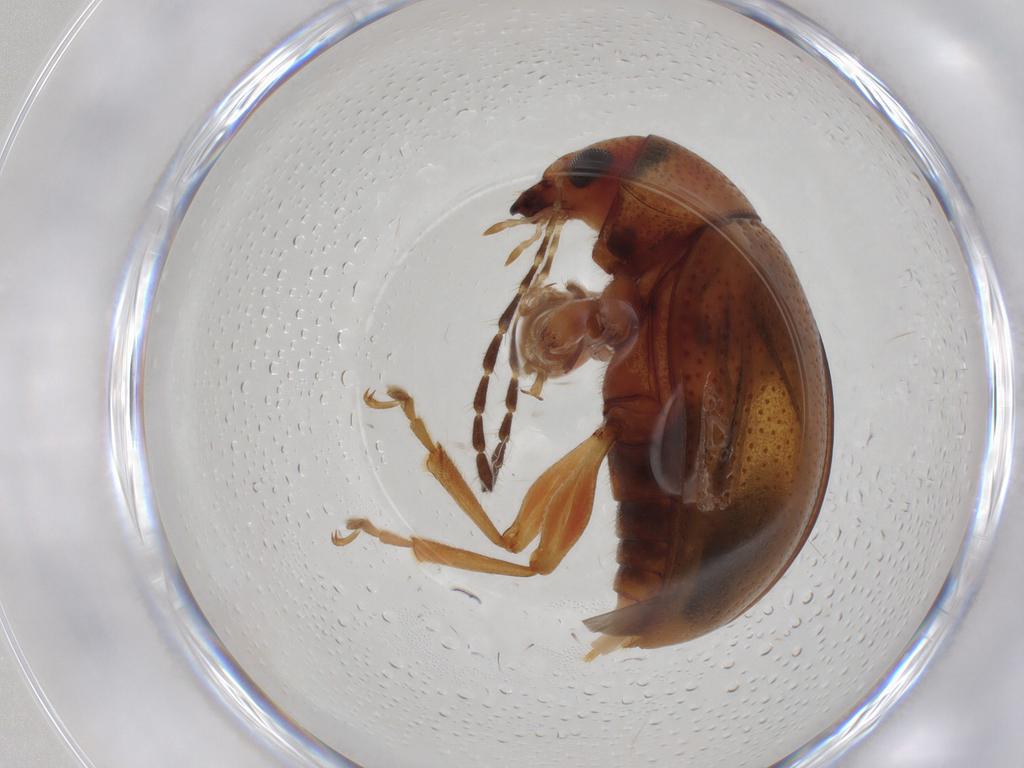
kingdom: Animalia
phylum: Arthropoda
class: Insecta
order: Coleoptera
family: Chrysomelidae
